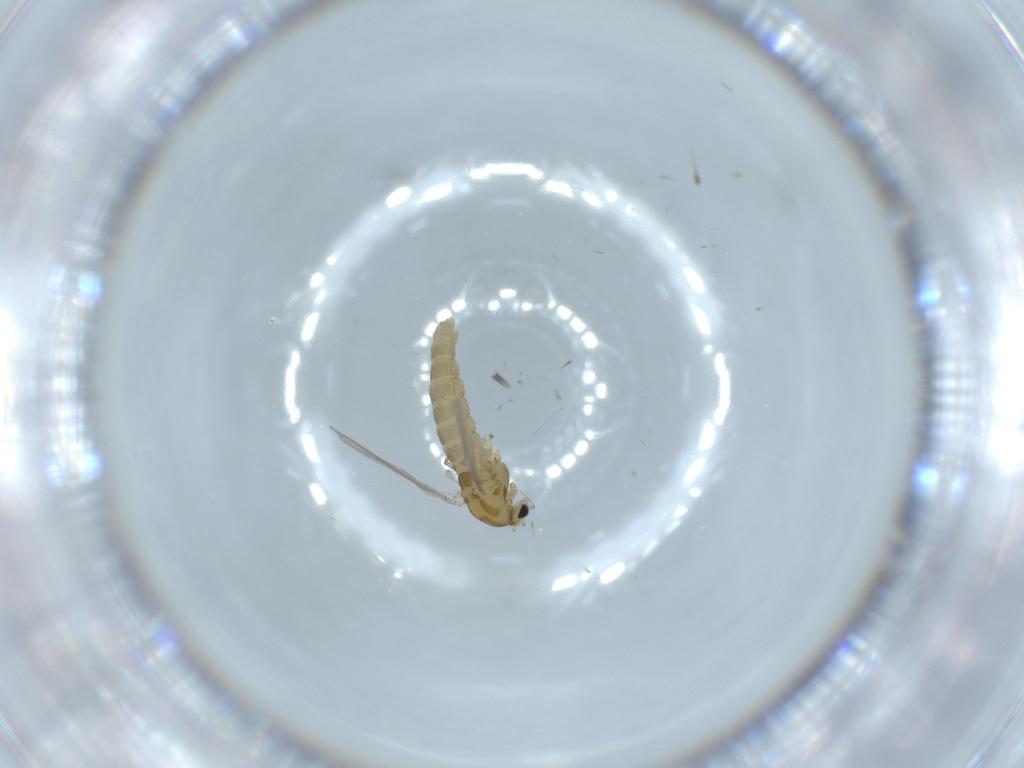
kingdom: Animalia
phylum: Arthropoda
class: Insecta
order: Diptera
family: Chironomidae
